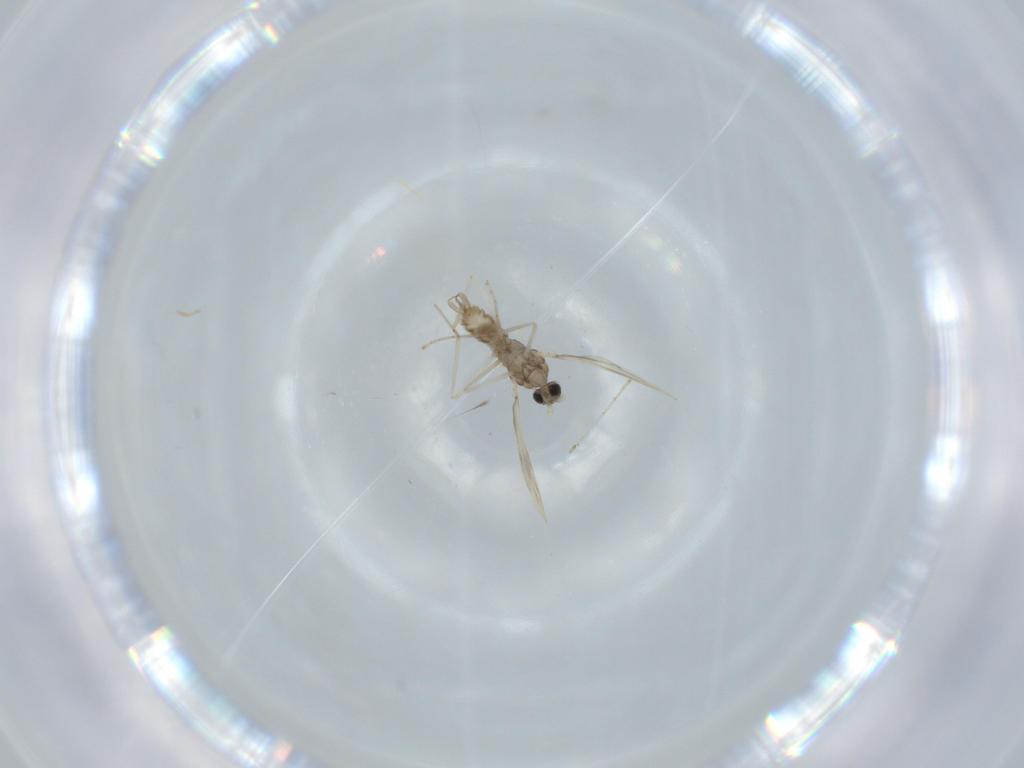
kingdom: Animalia
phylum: Arthropoda
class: Insecta
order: Diptera
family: Cecidomyiidae
